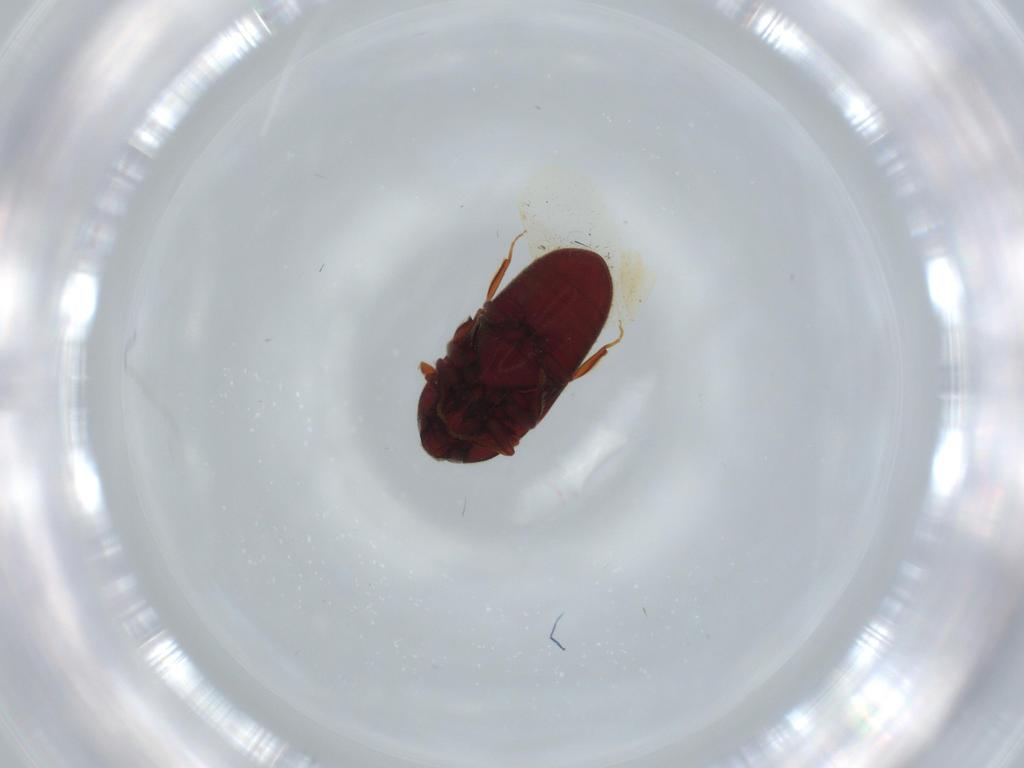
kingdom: Animalia
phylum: Arthropoda
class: Insecta
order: Coleoptera
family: Throscidae
